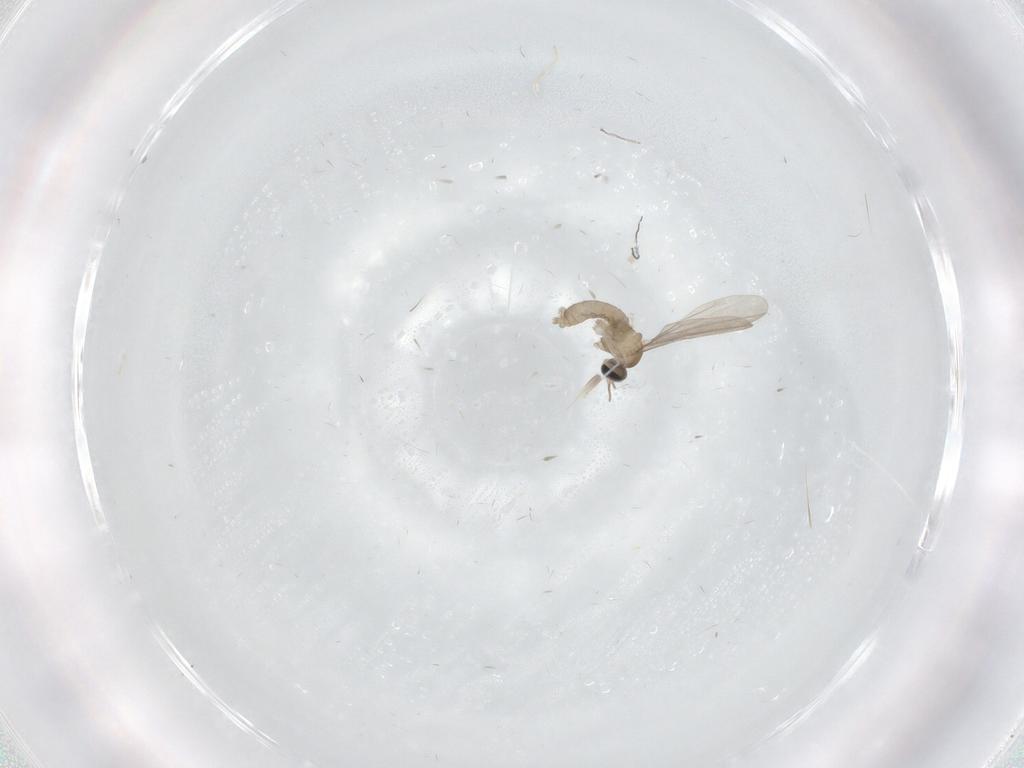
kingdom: Animalia
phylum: Arthropoda
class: Insecta
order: Diptera
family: Cecidomyiidae
